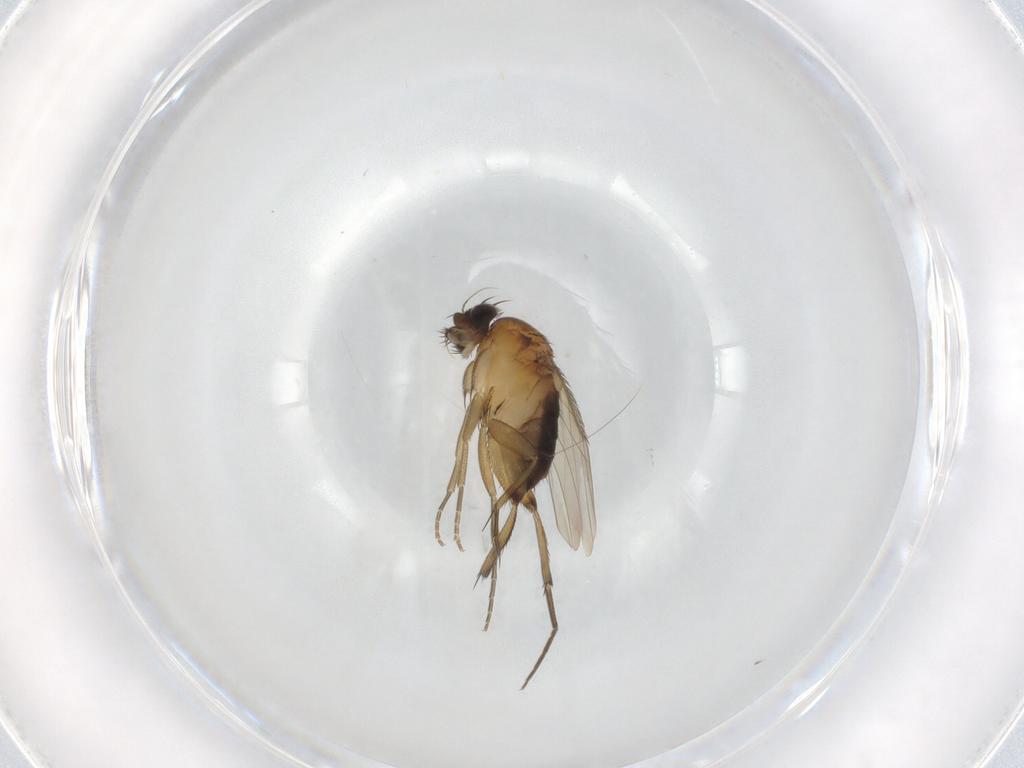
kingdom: Animalia
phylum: Arthropoda
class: Insecta
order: Diptera
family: Phoridae
